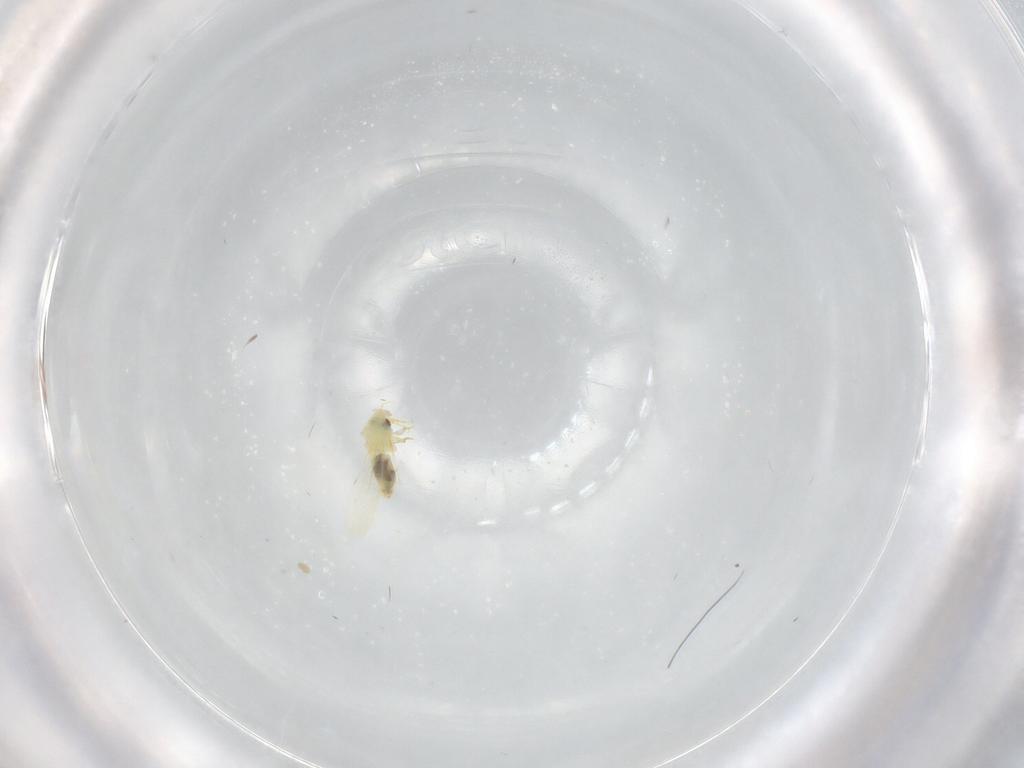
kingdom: Animalia
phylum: Arthropoda
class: Insecta
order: Hemiptera
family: Aleyrodidae
